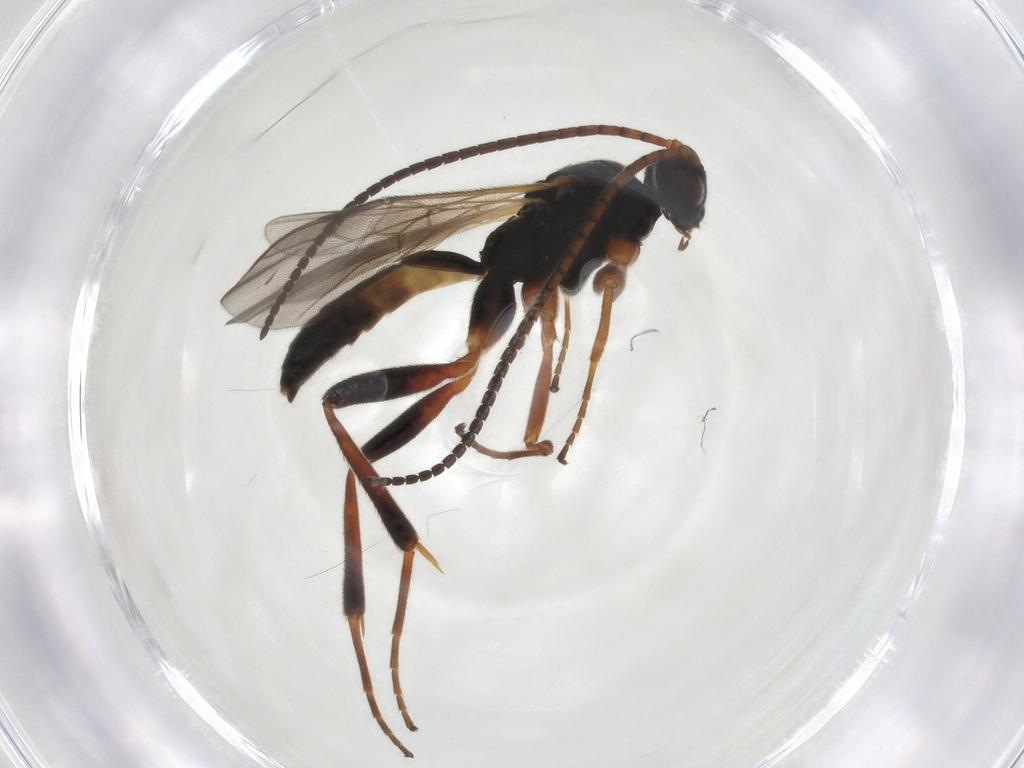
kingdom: Animalia
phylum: Arthropoda
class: Insecta
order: Hymenoptera
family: Braconidae
